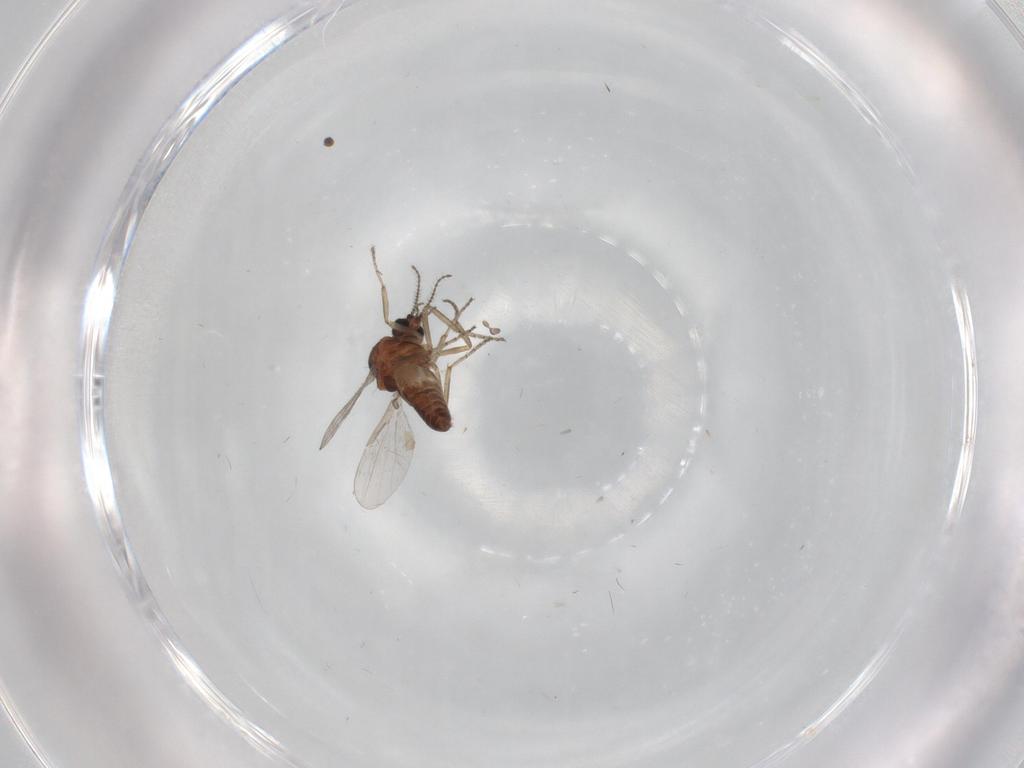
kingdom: Animalia
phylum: Arthropoda
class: Insecta
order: Diptera
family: Ceratopogonidae
